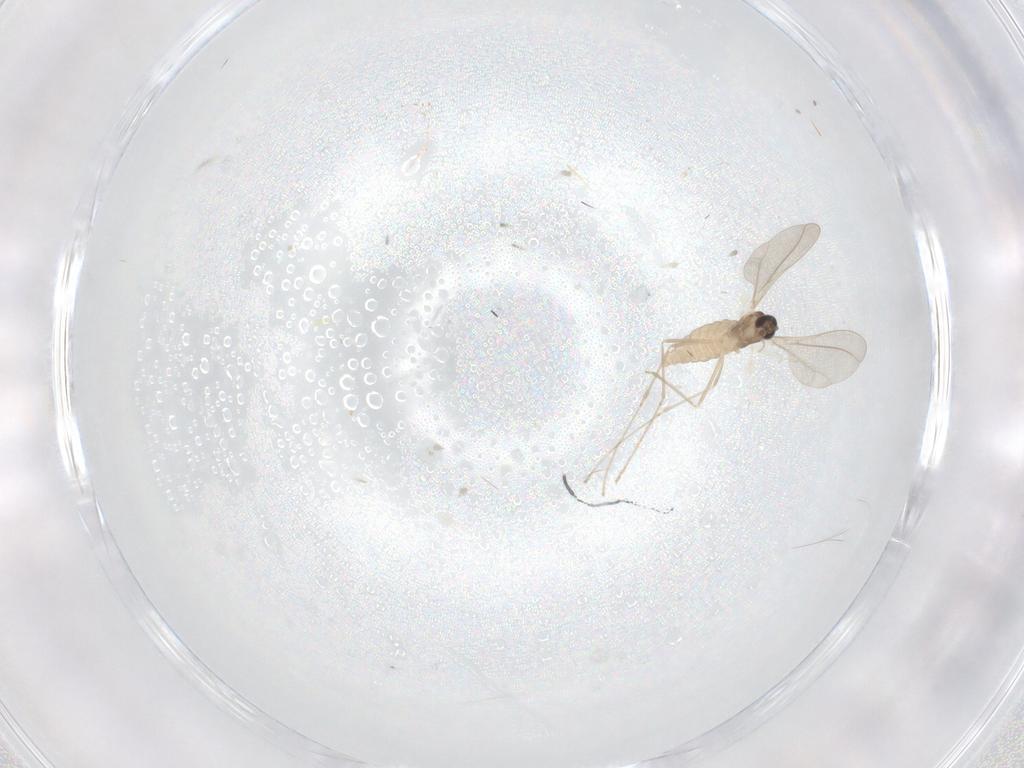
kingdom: Animalia
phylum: Arthropoda
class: Insecta
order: Diptera
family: Cecidomyiidae
